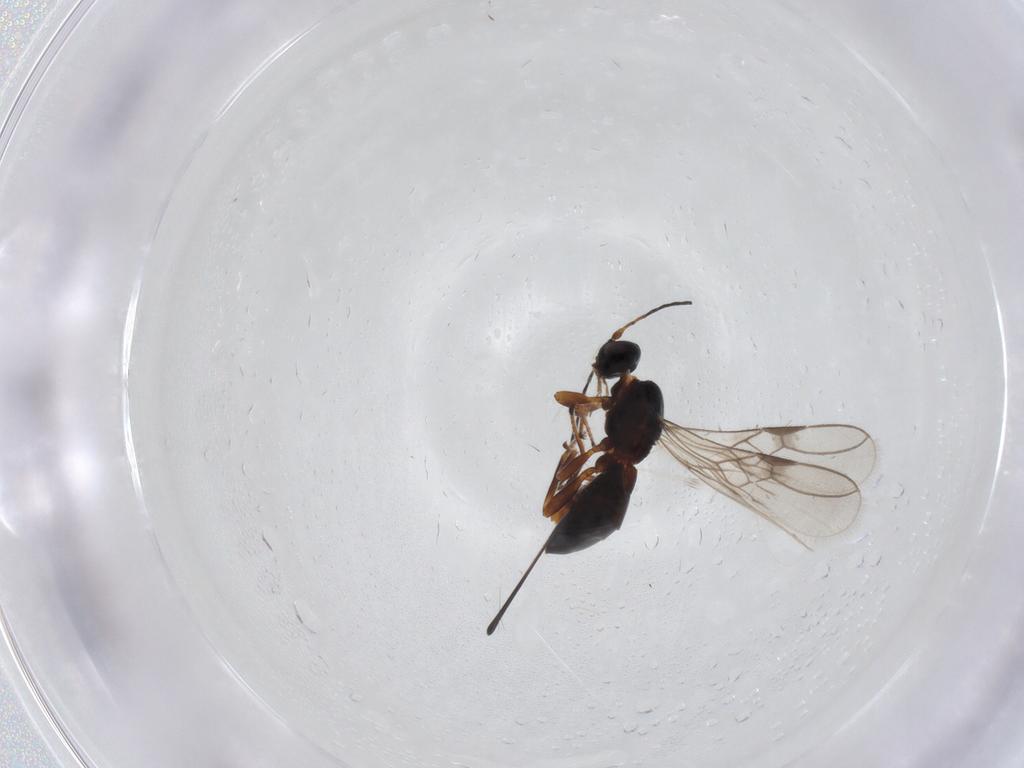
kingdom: Animalia
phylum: Arthropoda
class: Insecta
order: Hymenoptera
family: Braconidae
